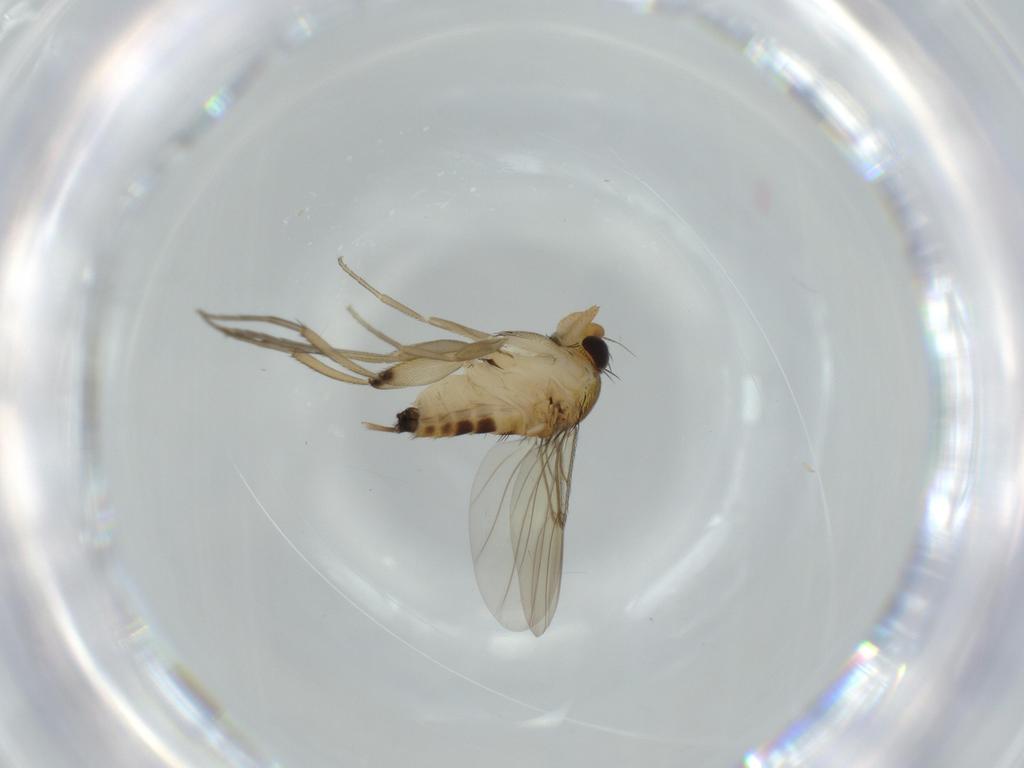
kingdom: Animalia
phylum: Arthropoda
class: Insecta
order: Diptera
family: Phoridae
